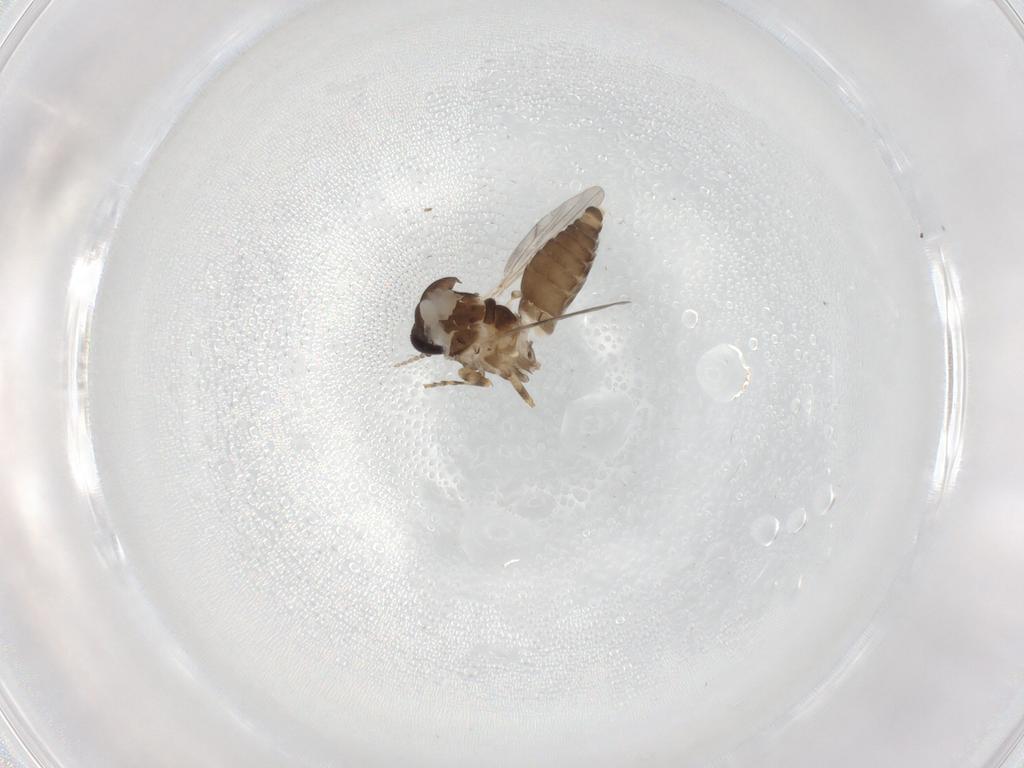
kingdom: Animalia
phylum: Arthropoda
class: Insecta
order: Diptera
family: Ceratopogonidae
